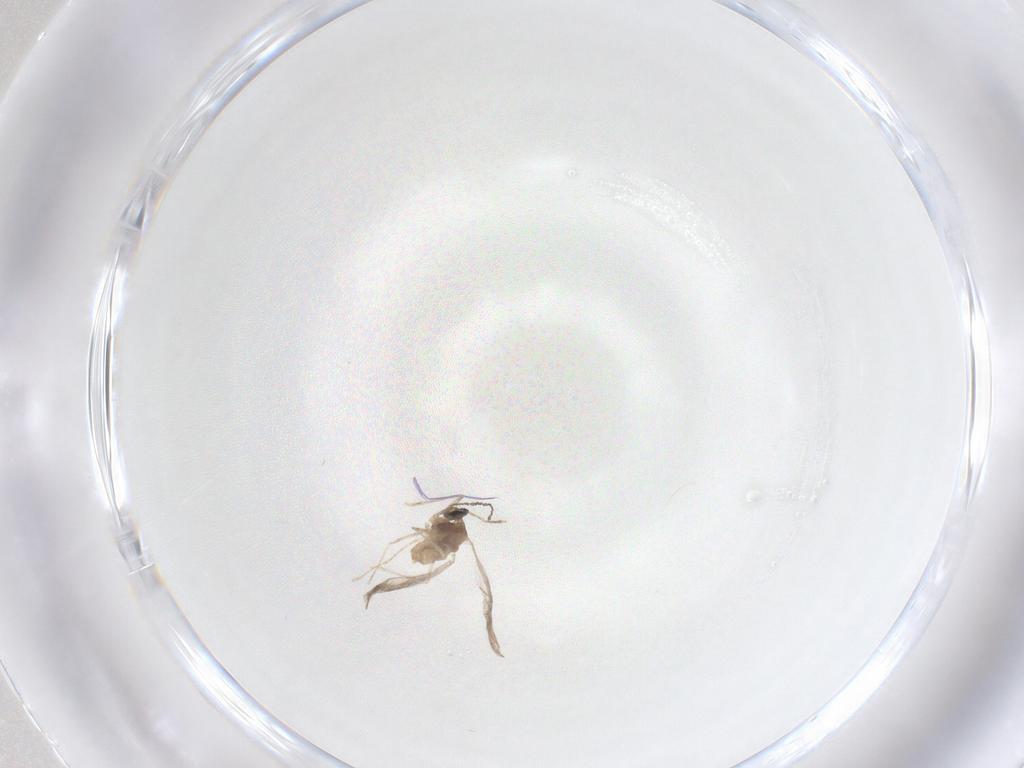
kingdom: Animalia
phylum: Arthropoda
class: Insecta
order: Diptera
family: Cecidomyiidae
